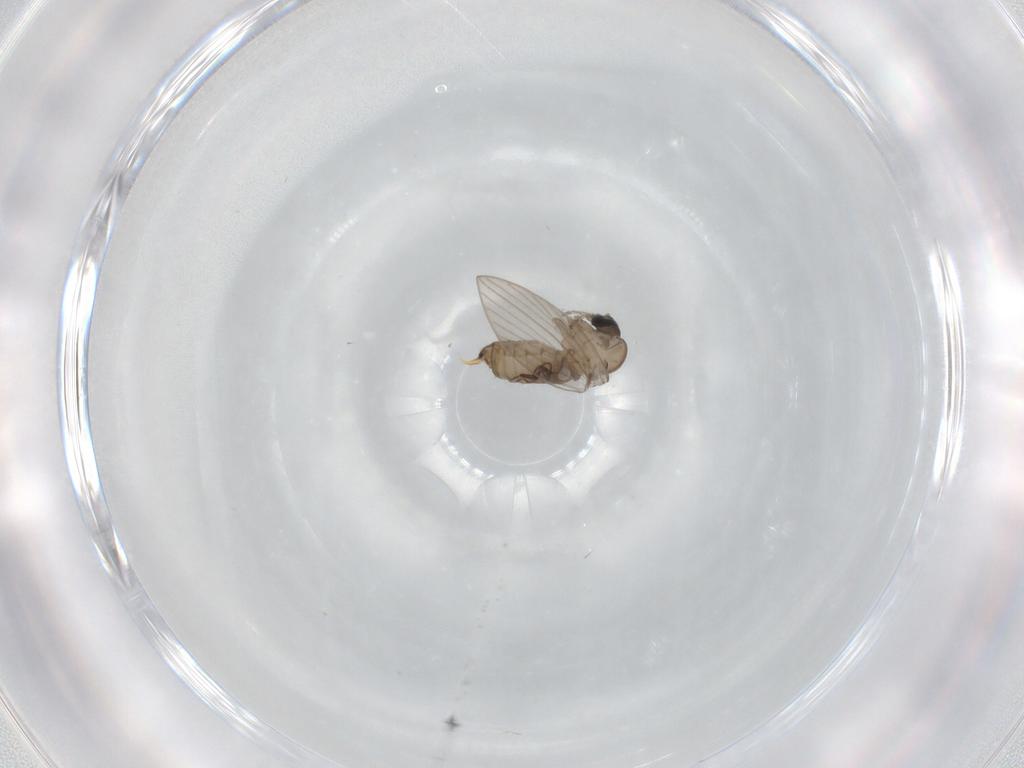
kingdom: Animalia
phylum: Arthropoda
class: Insecta
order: Diptera
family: Psychodidae
